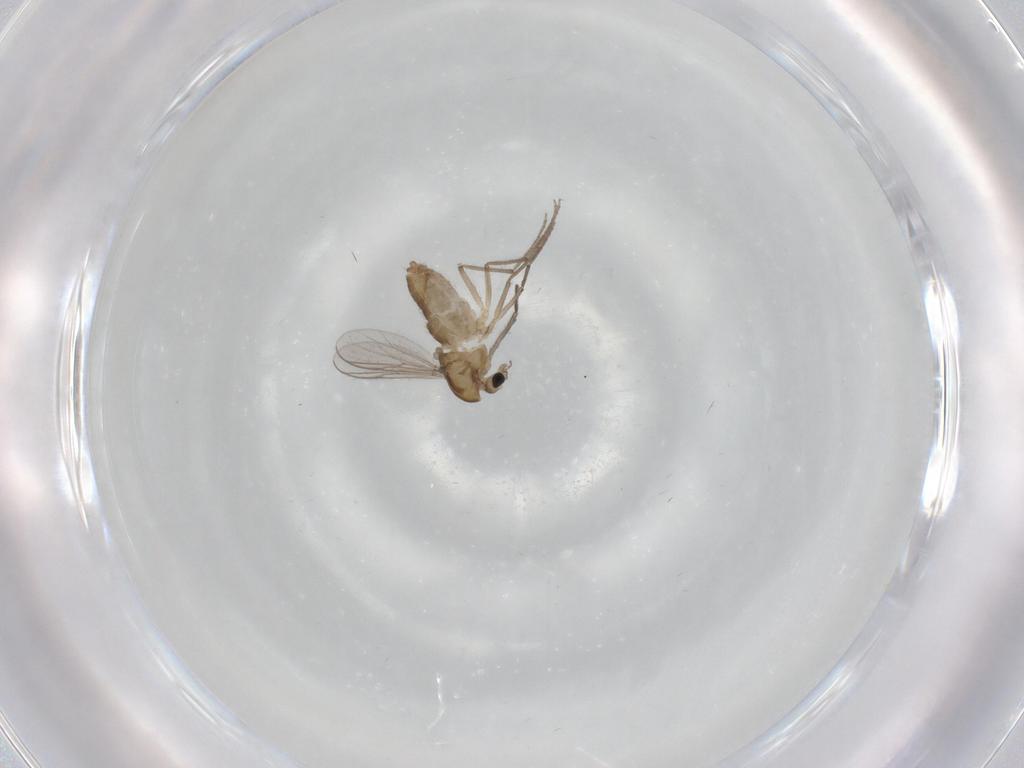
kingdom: Animalia
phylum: Arthropoda
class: Insecta
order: Diptera
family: Chironomidae
